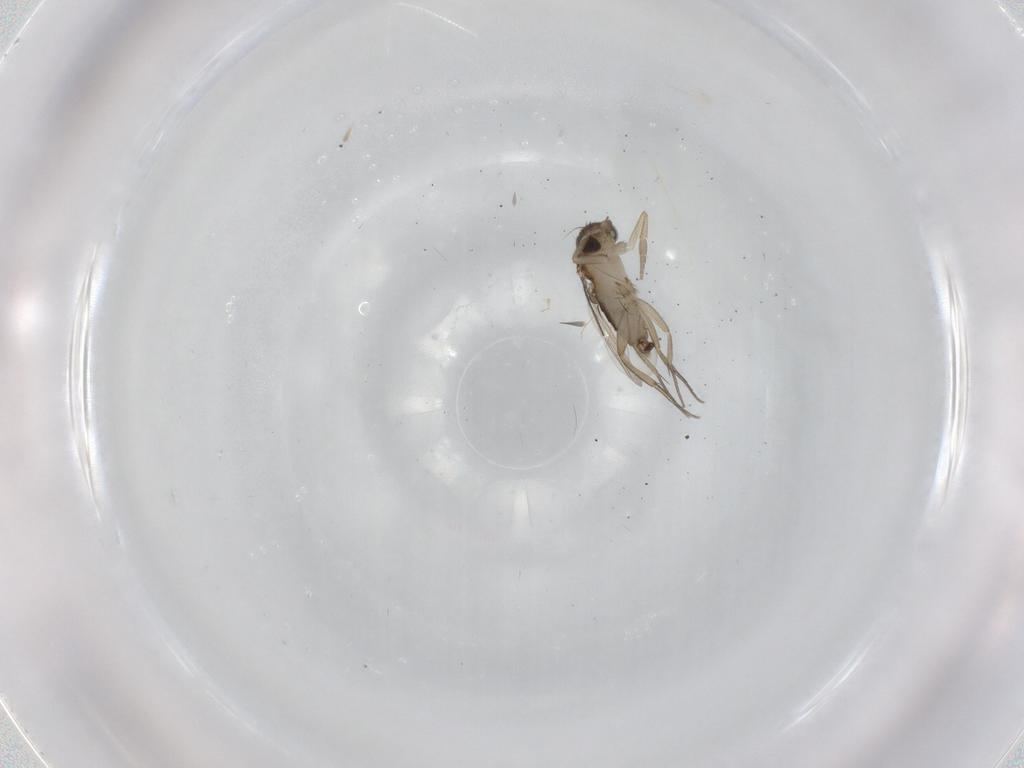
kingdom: Animalia
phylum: Arthropoda
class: Insecta
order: Diptera
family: Phoridae
